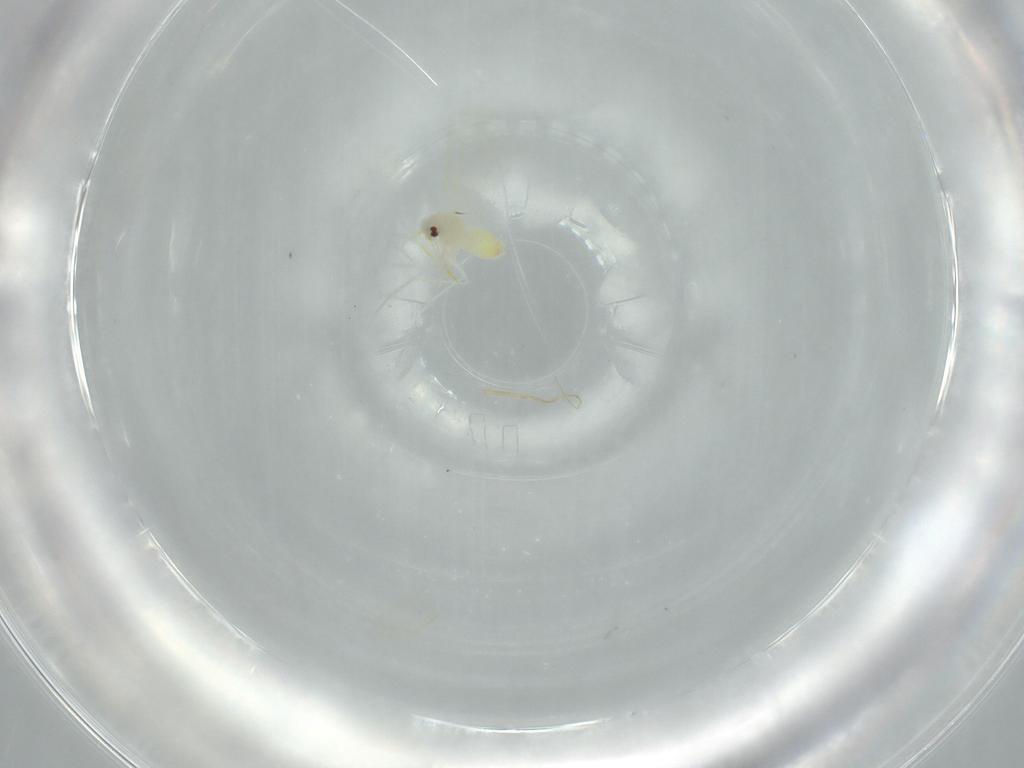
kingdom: Animalia
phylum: Arthropoda
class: Insecta
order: Hemiptera
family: Aleyrodidae
